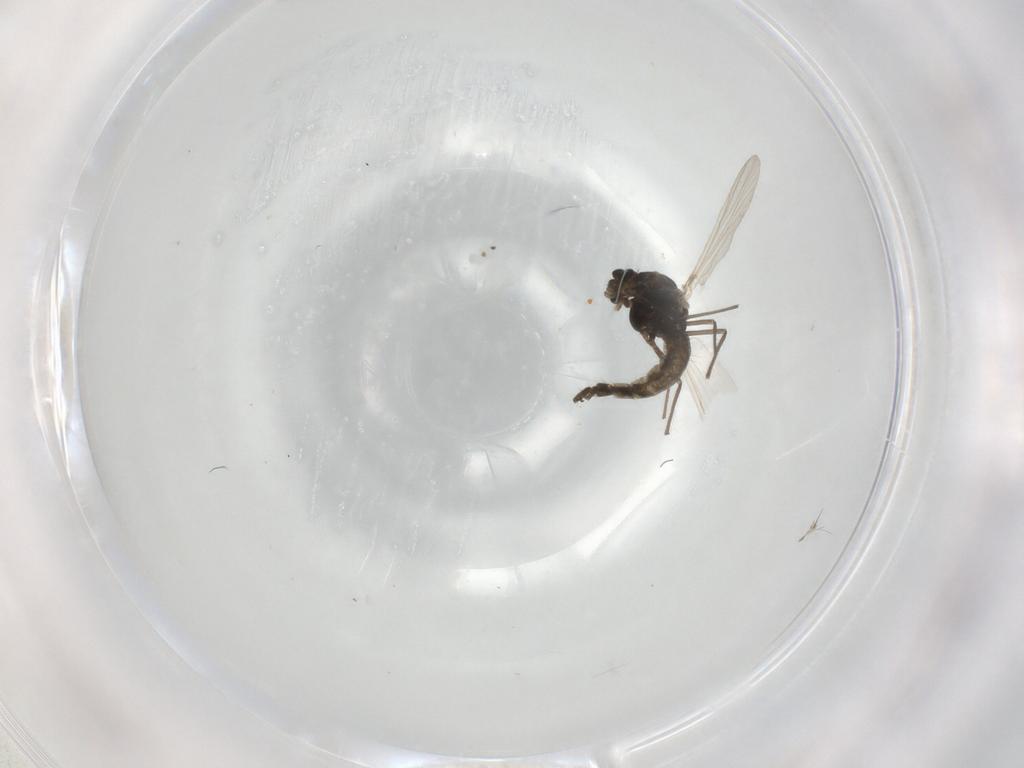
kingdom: Animalia
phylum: Arthropoda
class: Insecta
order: Diptera
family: Chironomidae
